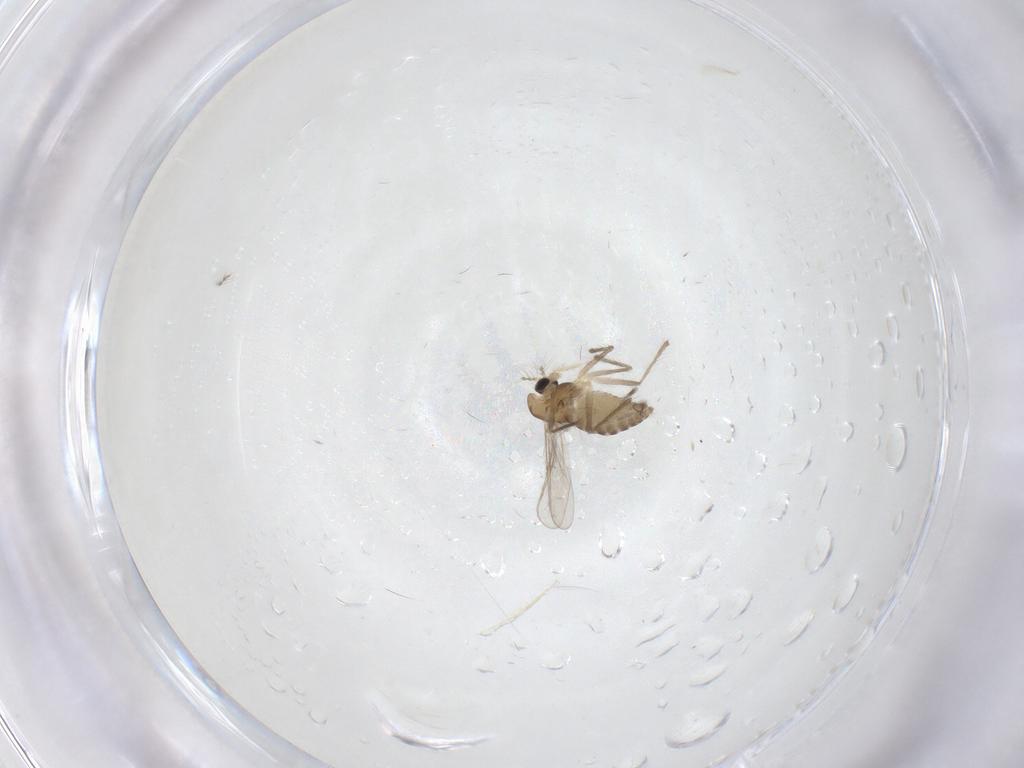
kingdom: Animalia
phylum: Arthropoda
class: Insecta
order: Diptera
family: Chironomidae
